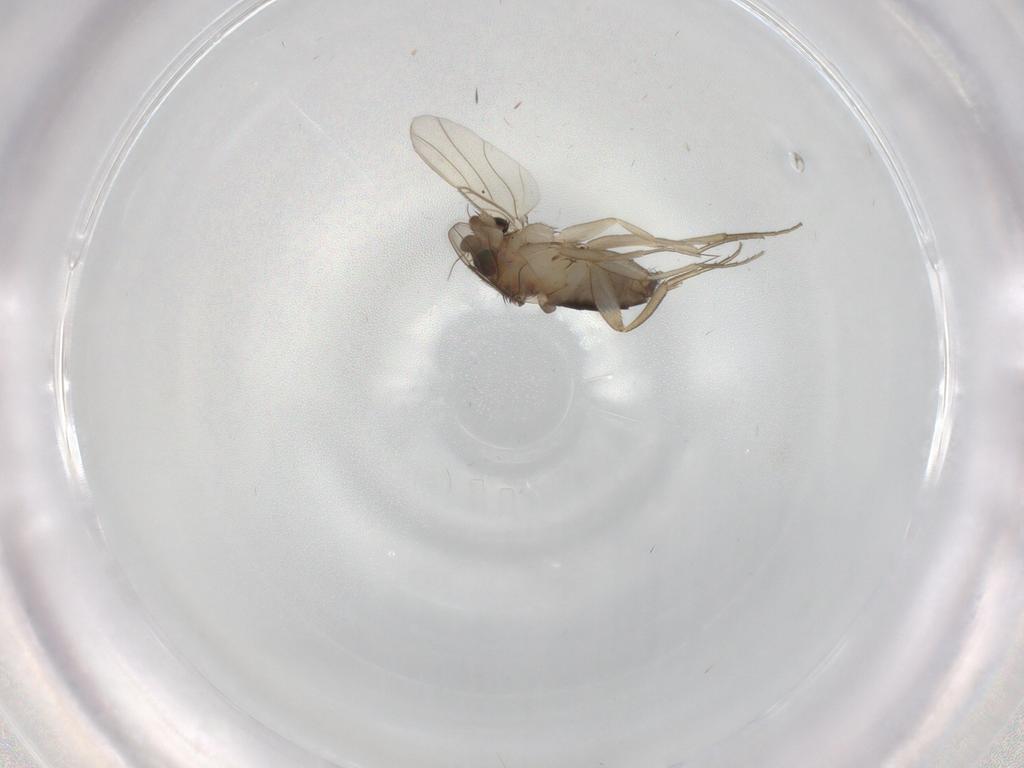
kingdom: Animalia
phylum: Arthropoda
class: Insecta
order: Diptera
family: Phoridae
